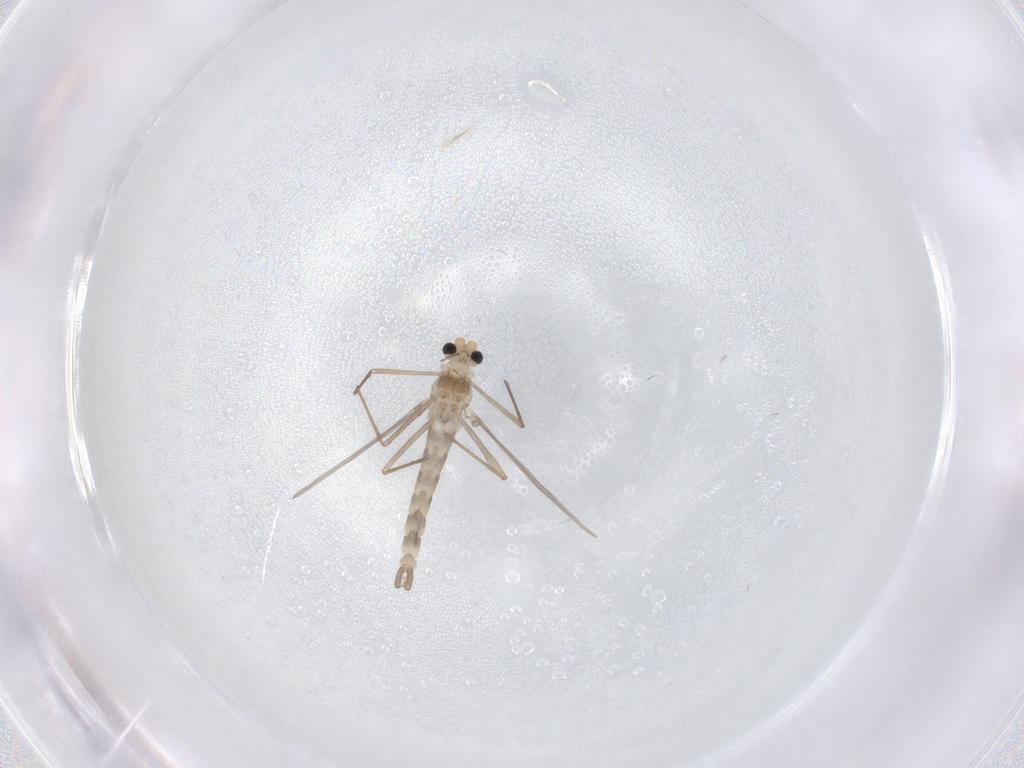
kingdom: Animalia
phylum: Arthropoda
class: Insecta
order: Diptera
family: Chironomidae
